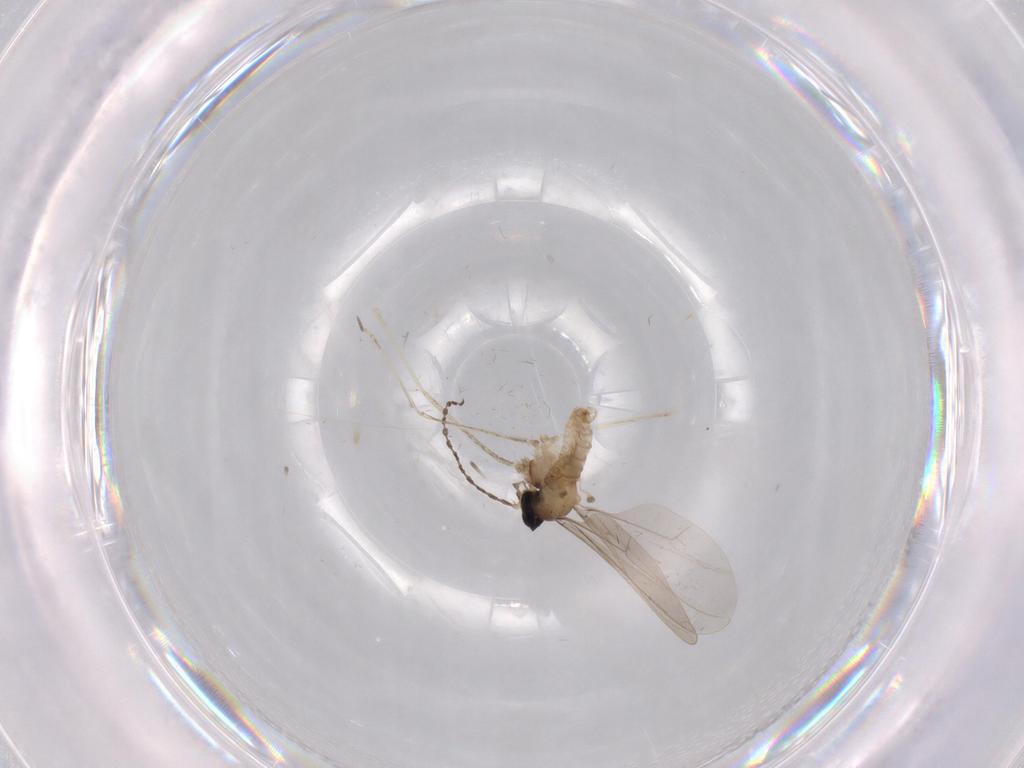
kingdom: Animalia
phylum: Arthropoda
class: Insecta
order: Diptera
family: Cecidomyiidae
